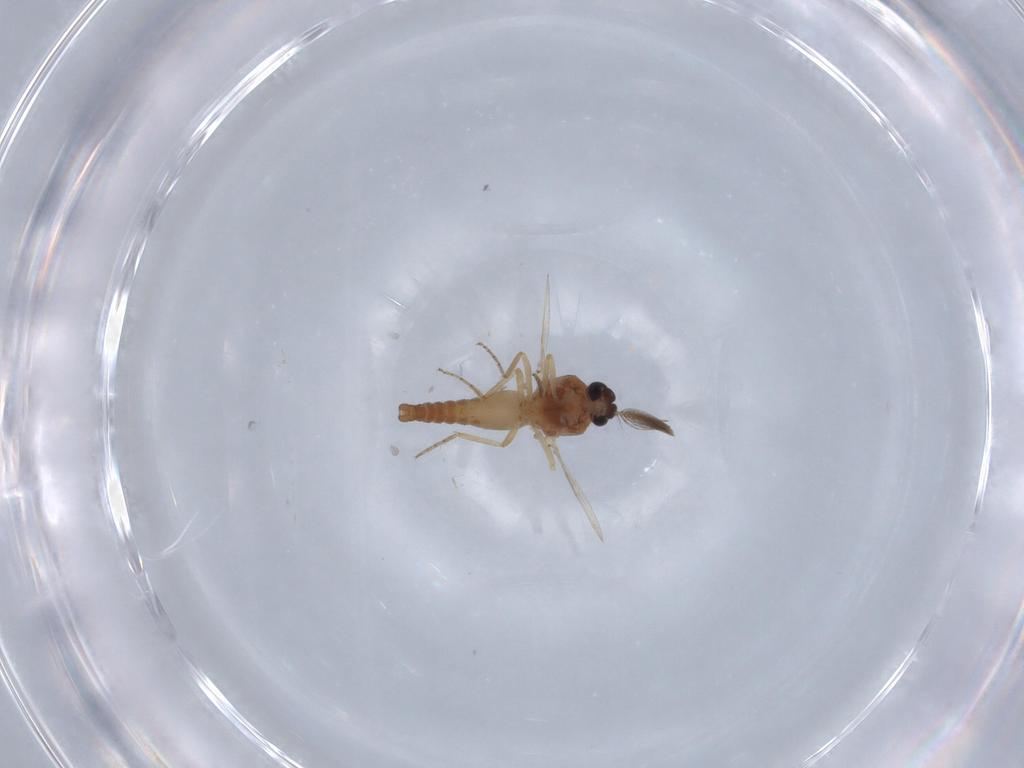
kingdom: Animalia
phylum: Arthropoda
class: Insecta
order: Diptera
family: Ceratopogonidae
